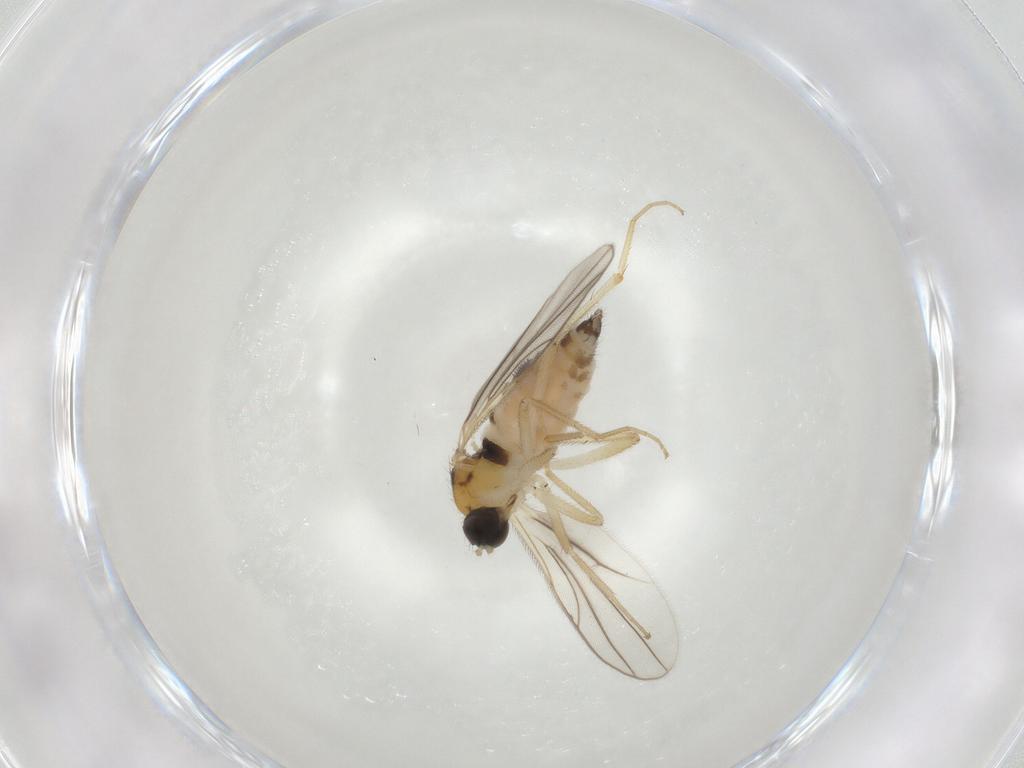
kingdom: Animalia
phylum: Arthropoda
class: Insecta
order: Diptera
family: Hybotidae
